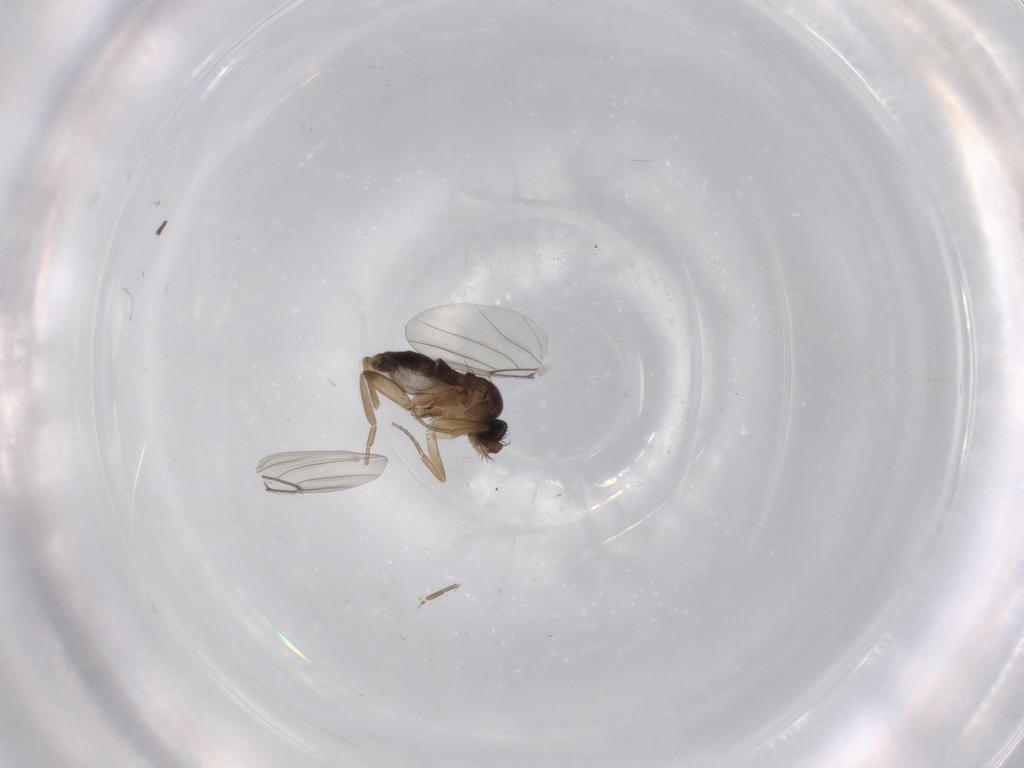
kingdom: Animalia
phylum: Arthropoda
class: Insecta
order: Diptera
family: Phoridae
